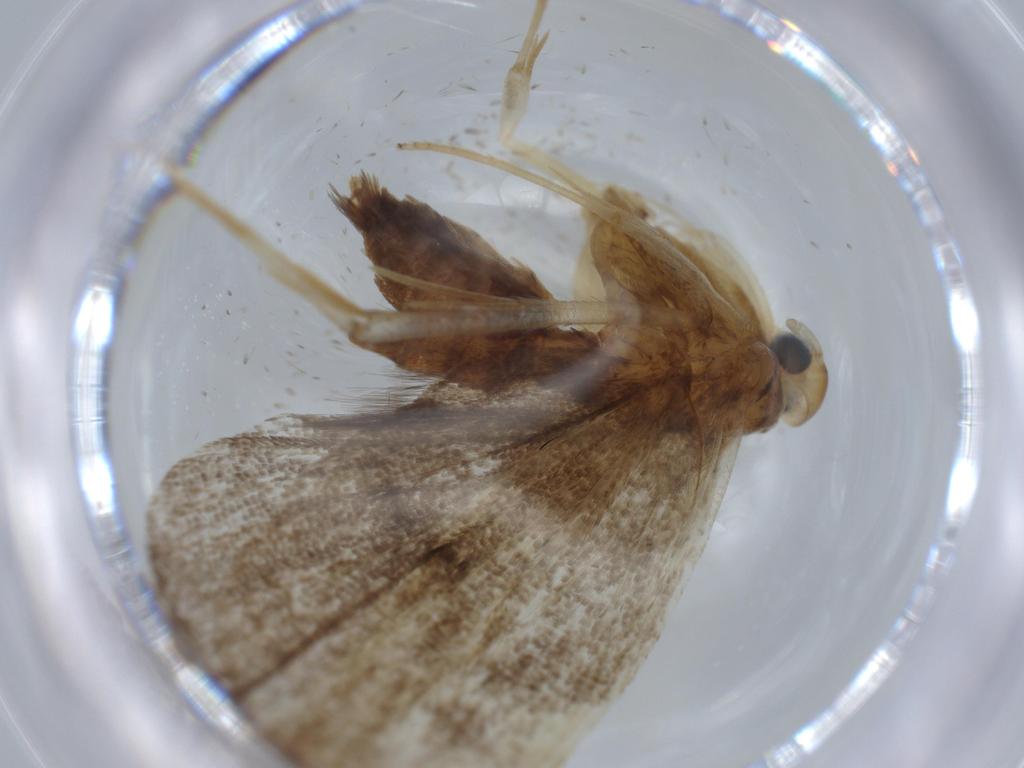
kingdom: Animalia
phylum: Arthropoda
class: Insecta
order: Lepidoptera
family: Lecithoceridae
